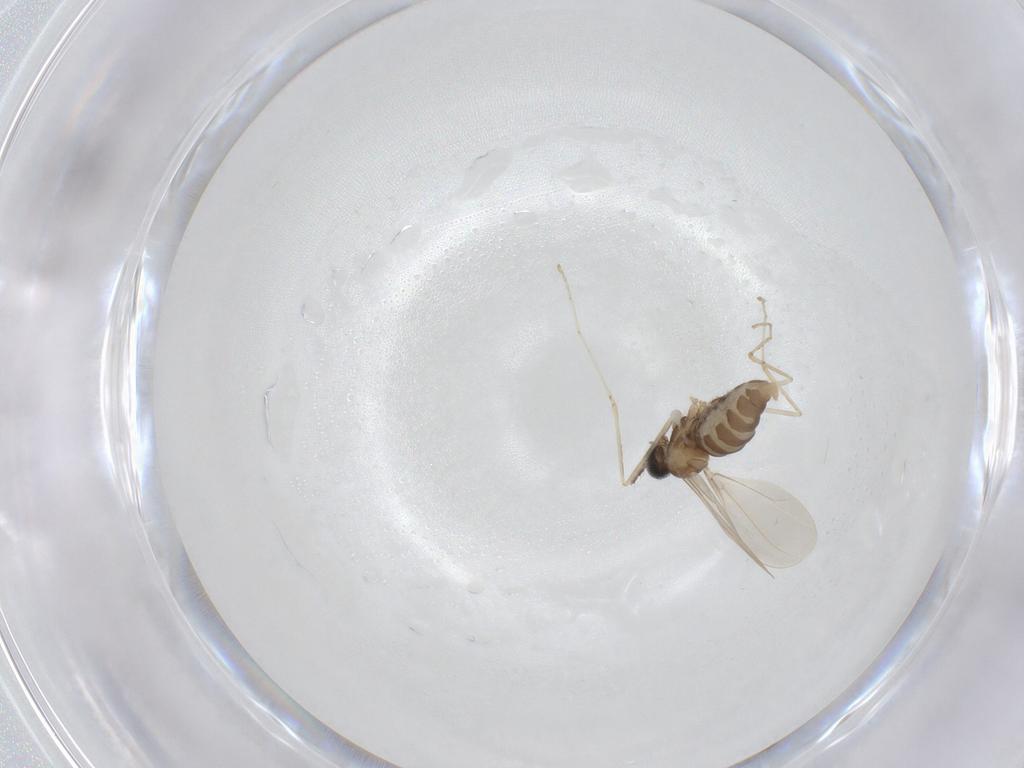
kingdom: Animalia
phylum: Arthropoda
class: Insecta
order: Diptera
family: Cecidomyiidae
